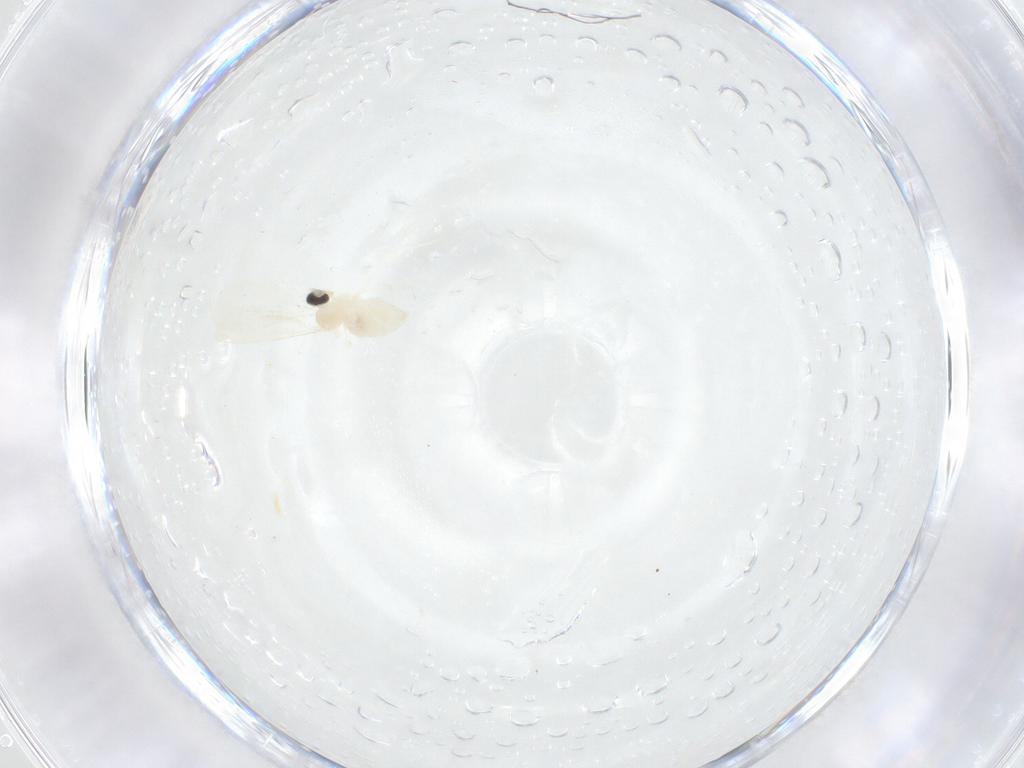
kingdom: Animalia
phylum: Arthropoda
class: Insecta
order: Diptera
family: Cecidomyiidae
